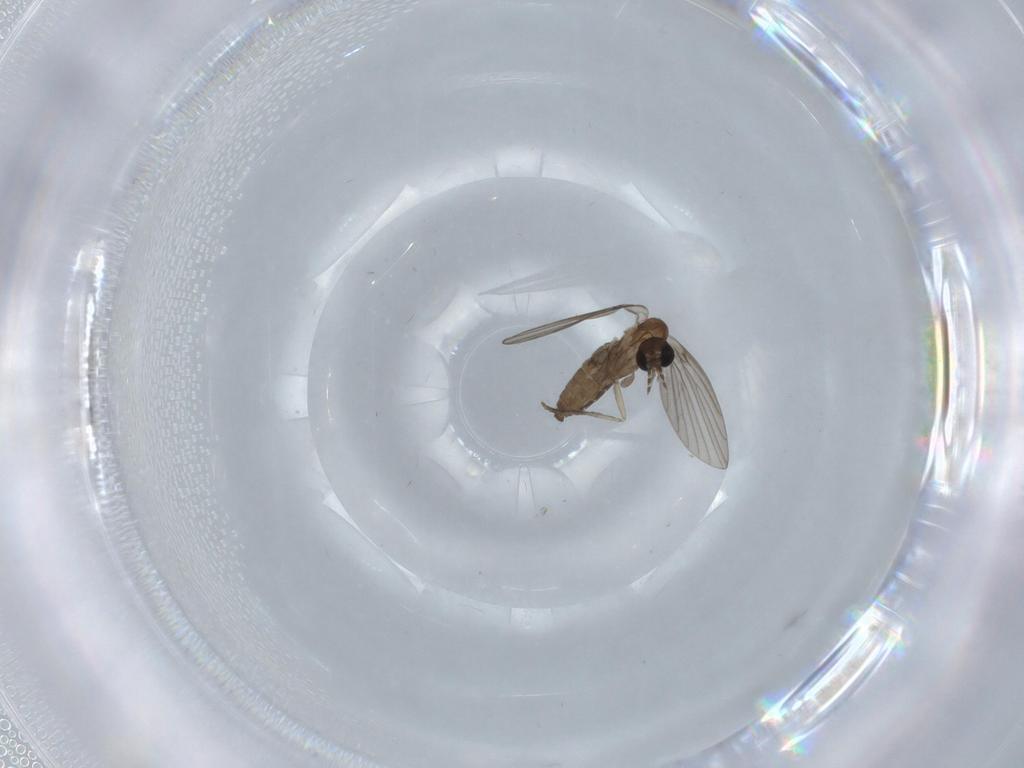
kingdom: Animalia
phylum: Arthropoda
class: Insecta
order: Diptera
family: Psychodidae
